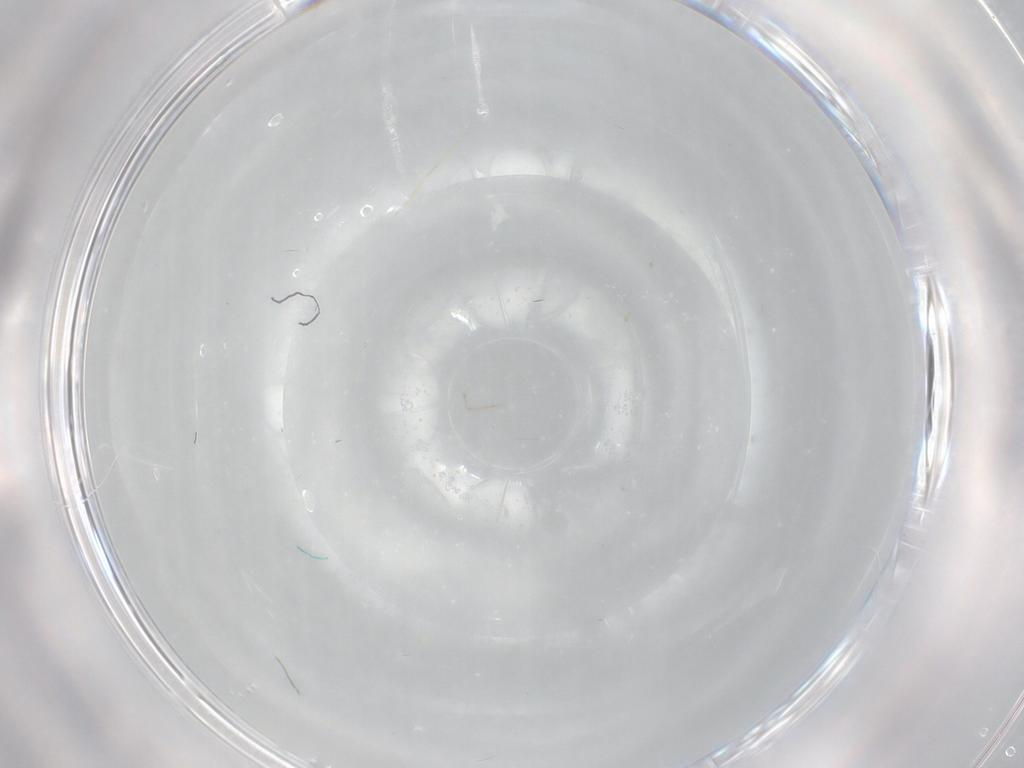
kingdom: Animalia
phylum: Arthropoda
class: Insecta
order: Diptera
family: Cecidomyiidae
